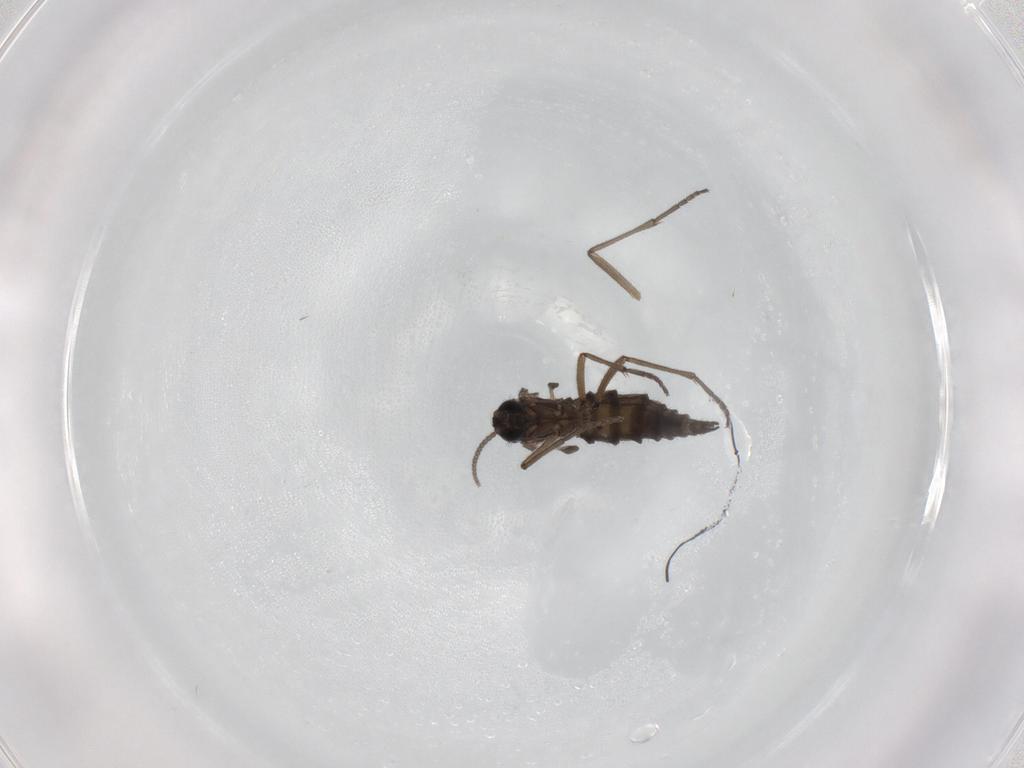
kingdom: Animalia
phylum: Arthropoda
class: Insecta
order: Diptera
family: Sciaridae
